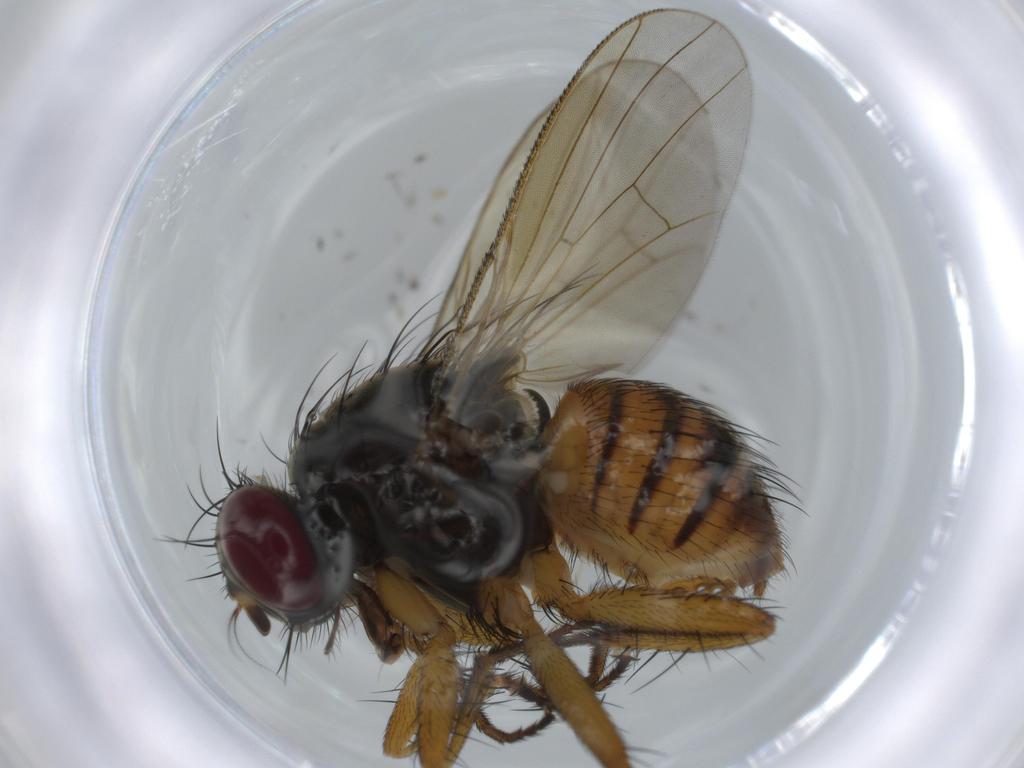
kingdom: Animalia
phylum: Arthropoda
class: Insecta
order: Diptera
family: Muscidae
